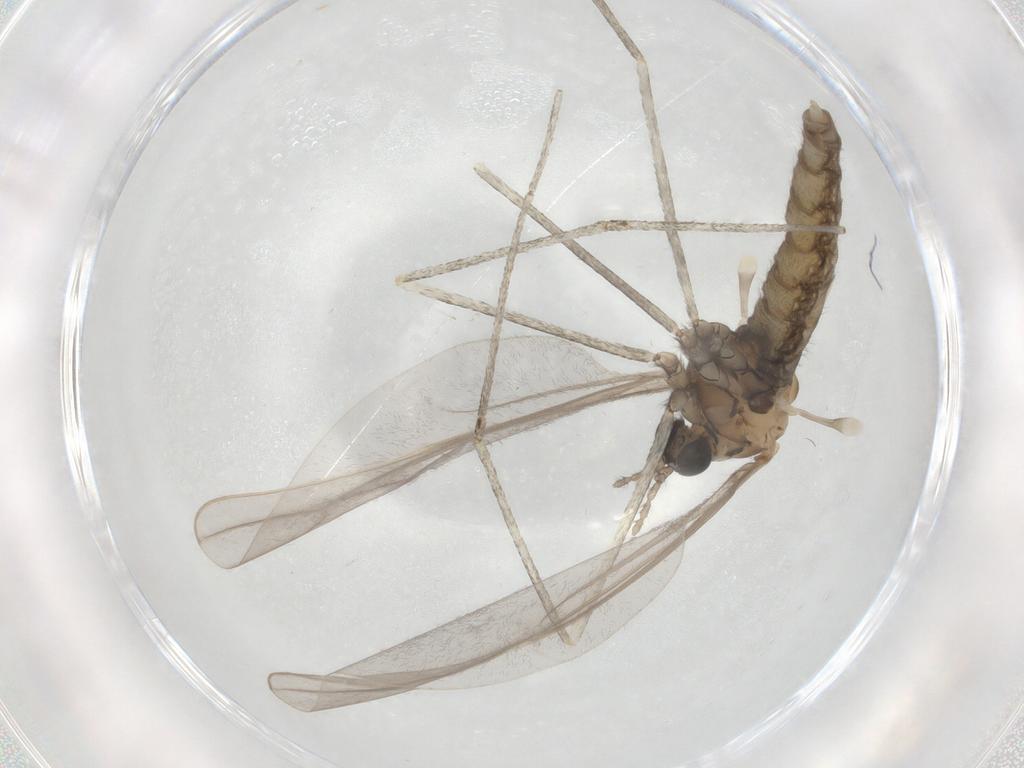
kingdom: Animalia
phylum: Arthropoda
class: Insecta
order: Diptera
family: Cecidomyiidae
